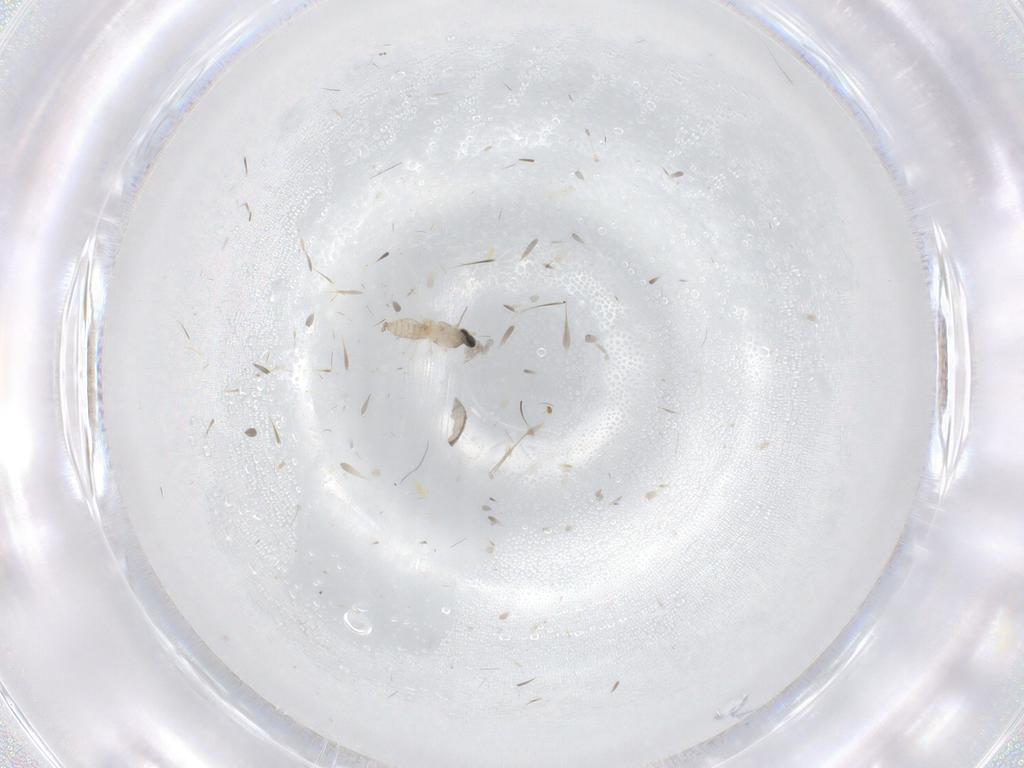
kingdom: Animalia
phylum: Arthropoda
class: Insecta
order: Diptera
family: Cecidomyiidae
